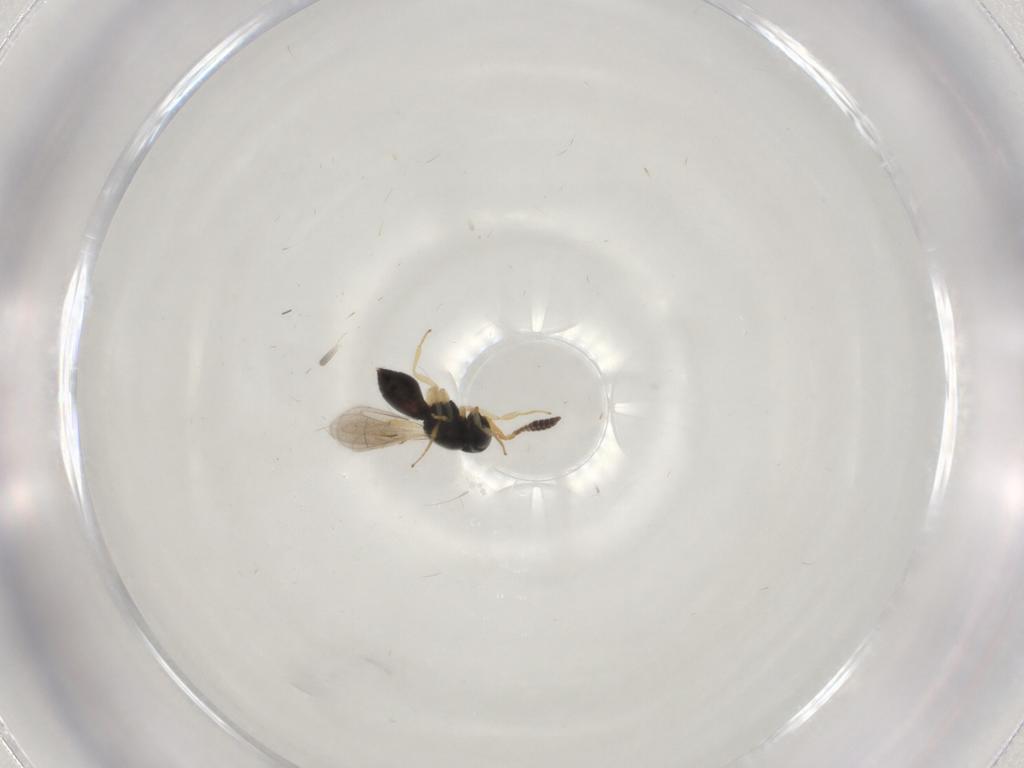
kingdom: Animalia
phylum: Arthropoda
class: Insecta
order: Hymenoptera
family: Scelionidae
